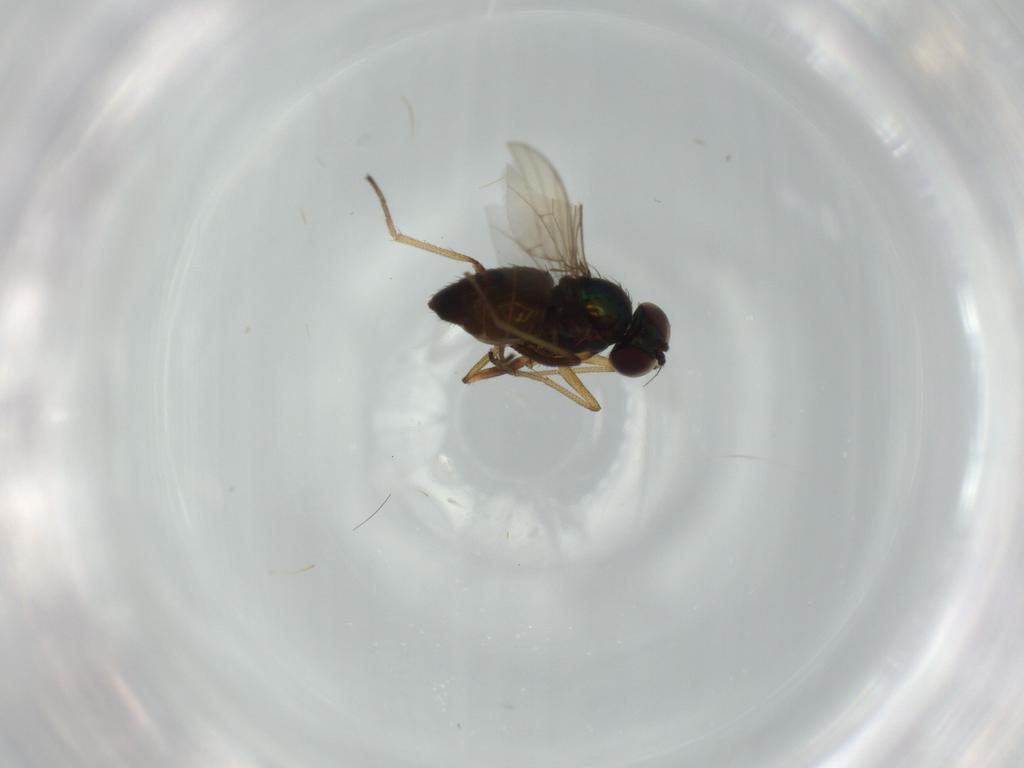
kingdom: Animalia
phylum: Arthropoda
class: Insecta
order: Diptera
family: Dolichopodidae
